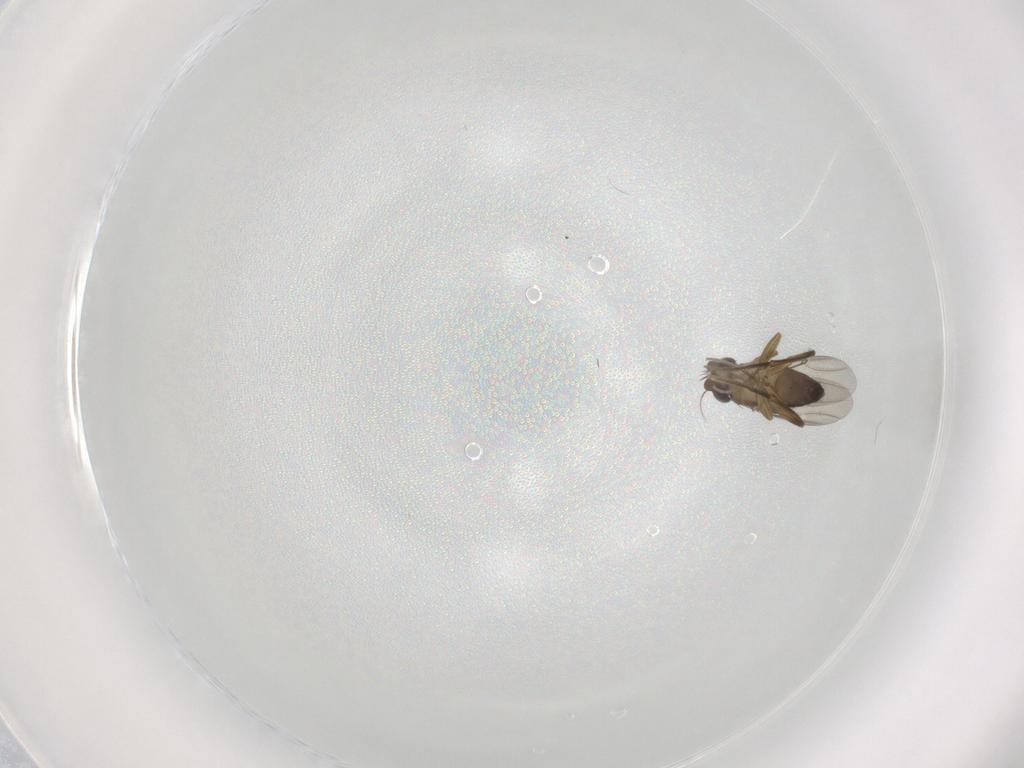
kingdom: Animalia
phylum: Arthropoda
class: Insecta
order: Diptera
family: Phoridae
